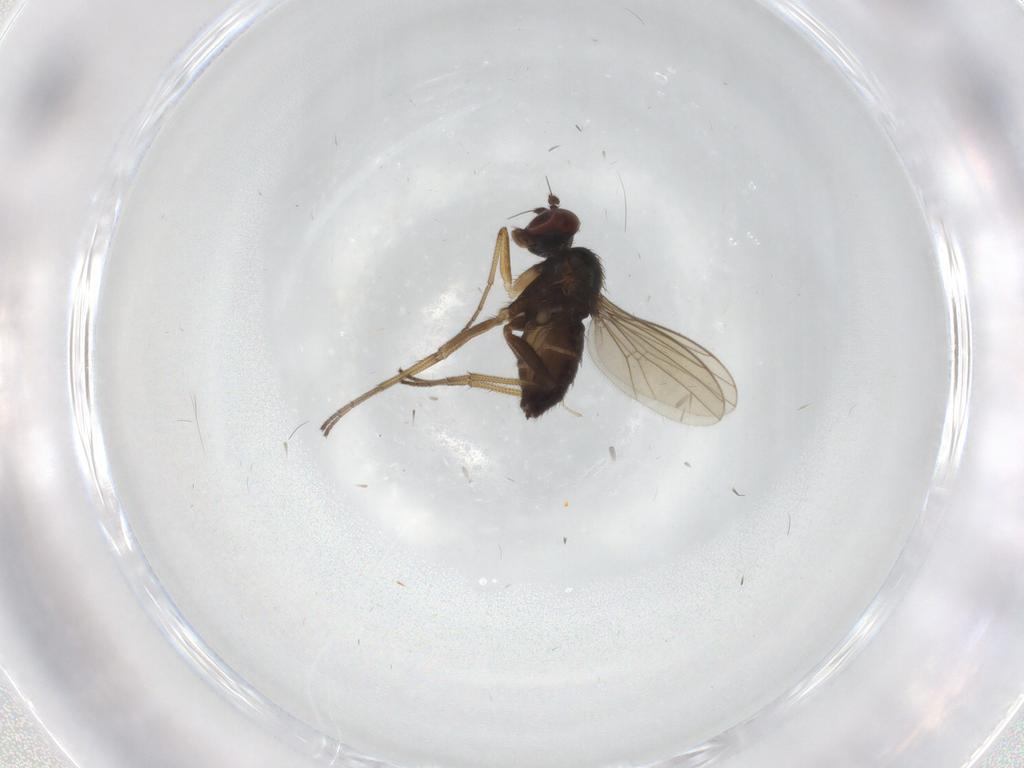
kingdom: Animalia
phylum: Arthropoda
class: Insecta
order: Diptera
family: Dolichopodidae
